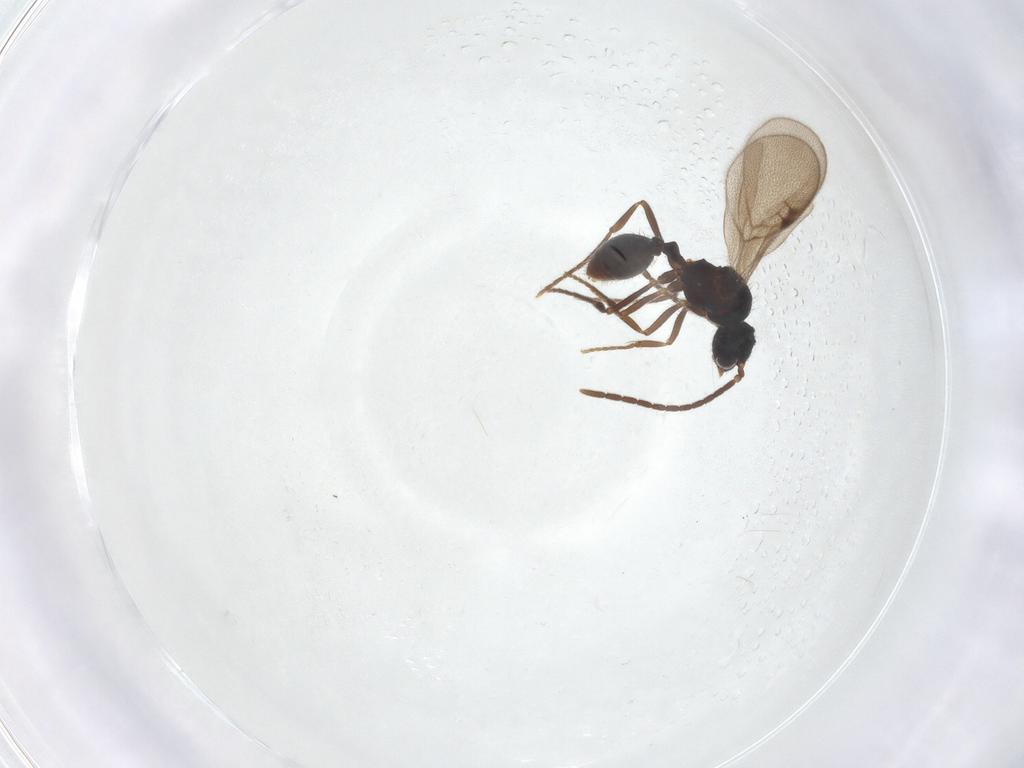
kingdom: Animalia
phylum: Arthropoda
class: Insecta
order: Hymenoptera
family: Formicidae
